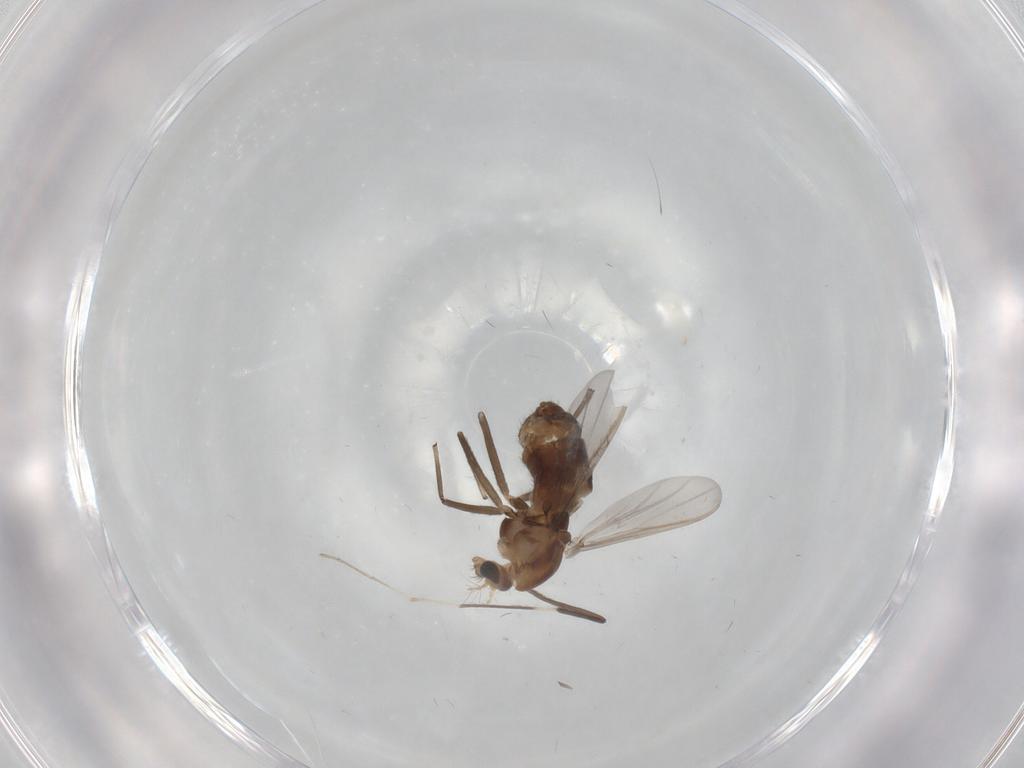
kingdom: Animalia
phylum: Arthropoda
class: Insecta
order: Diptera
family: Chironomidae
